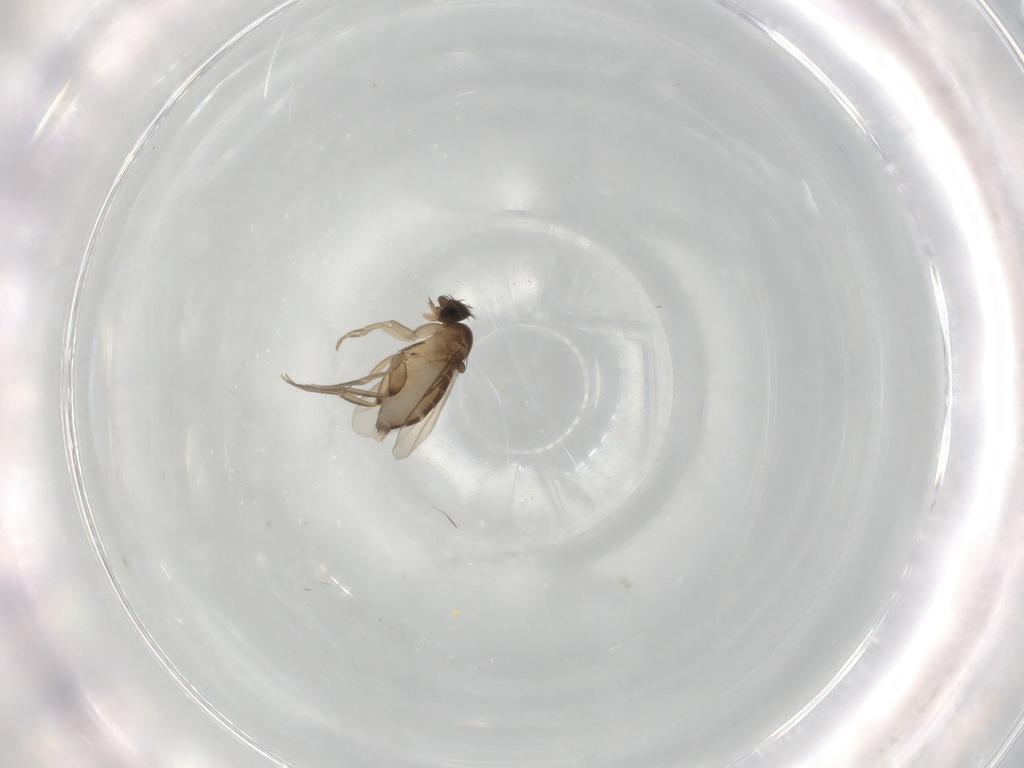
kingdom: Animalia
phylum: Arthropoda
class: Insecta
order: Diptera
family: Phoridae
